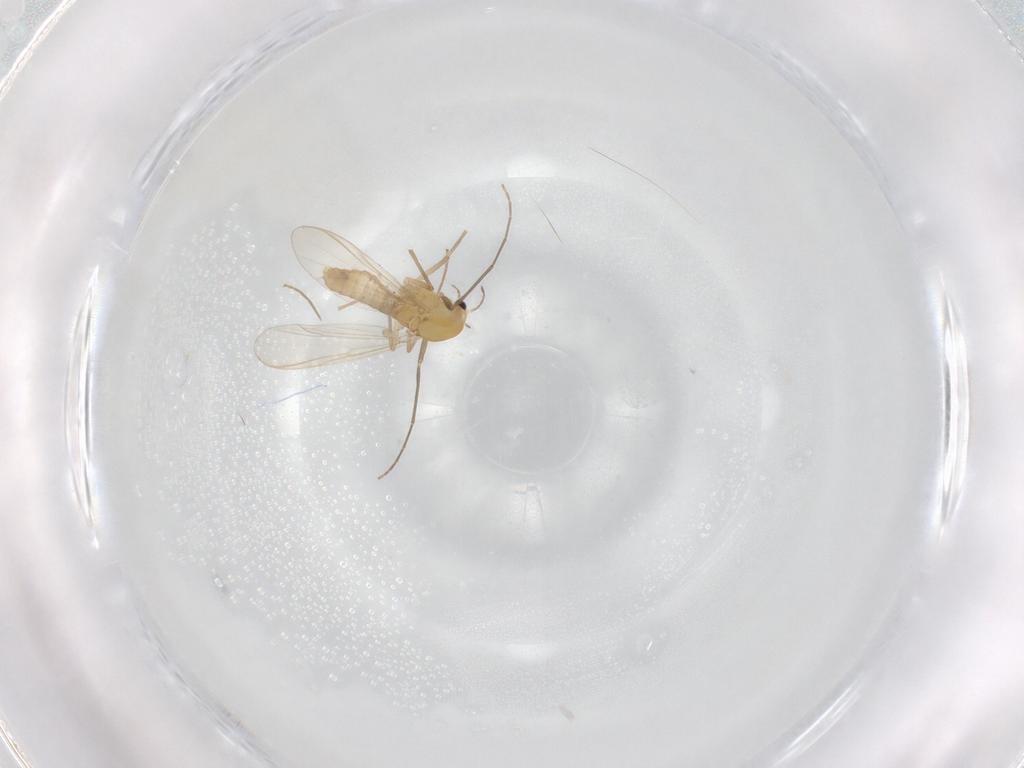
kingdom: Animalia
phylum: Arthropoda
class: Insecta
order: Diptera
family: Chironomidae
